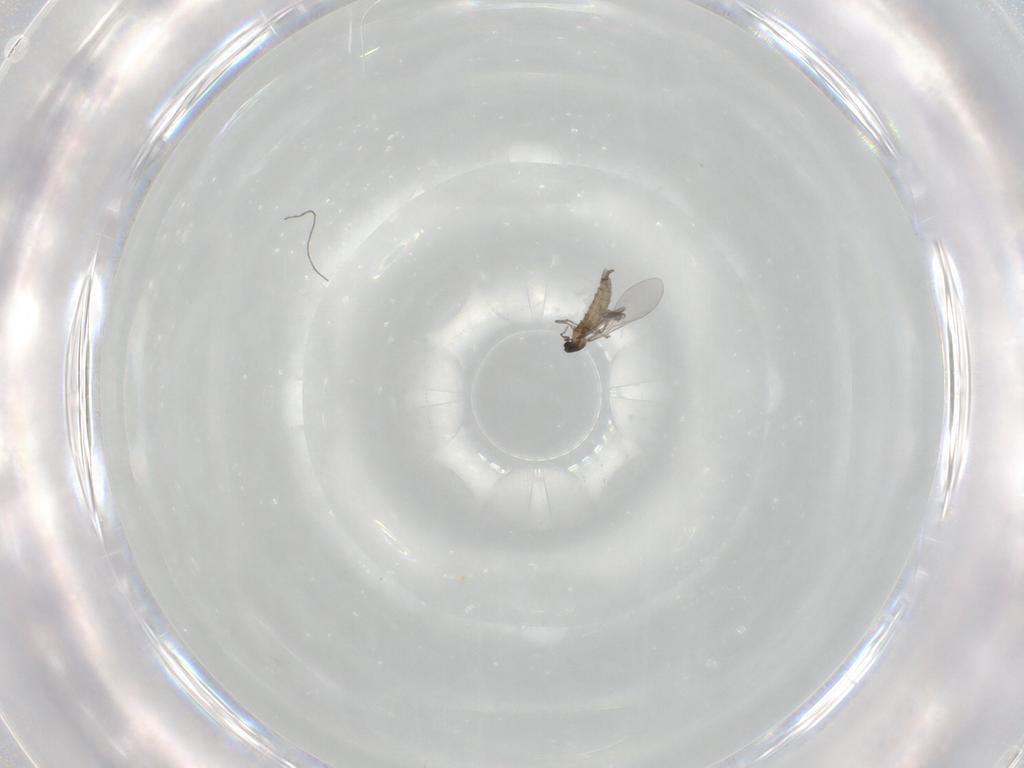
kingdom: Animalia
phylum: Arthropoda
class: Insecta
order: Diptera
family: Cecidomyiidae
